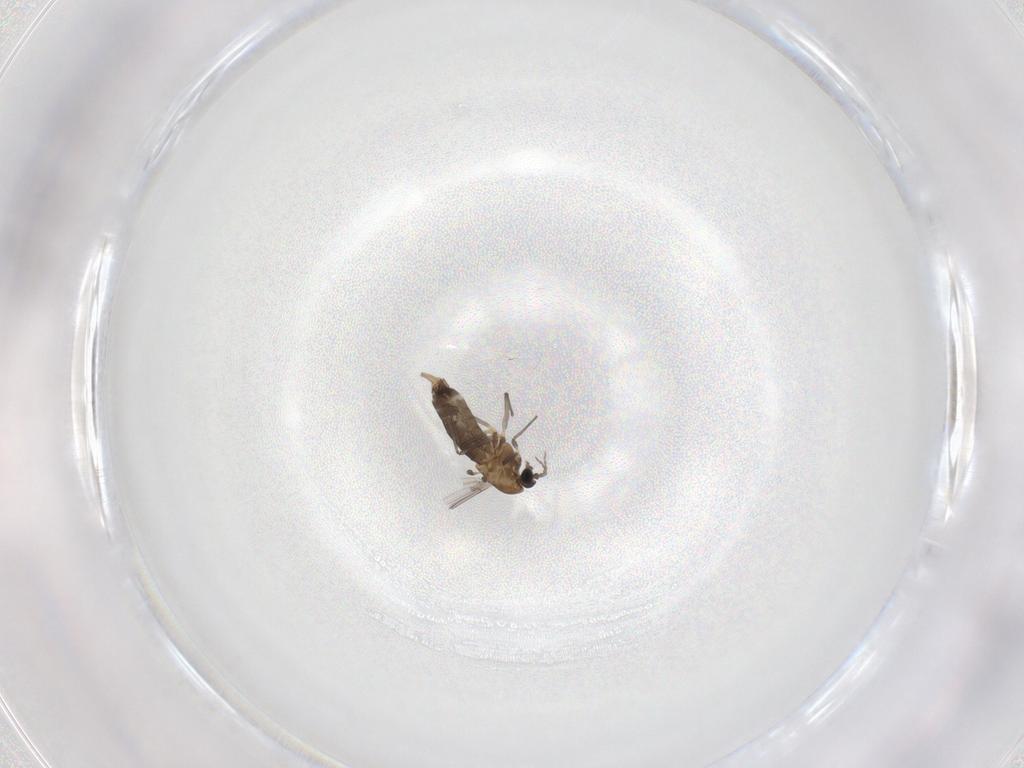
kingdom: Animalia
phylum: Arthropoda
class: Insecta
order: Diptera
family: Chironomidae
